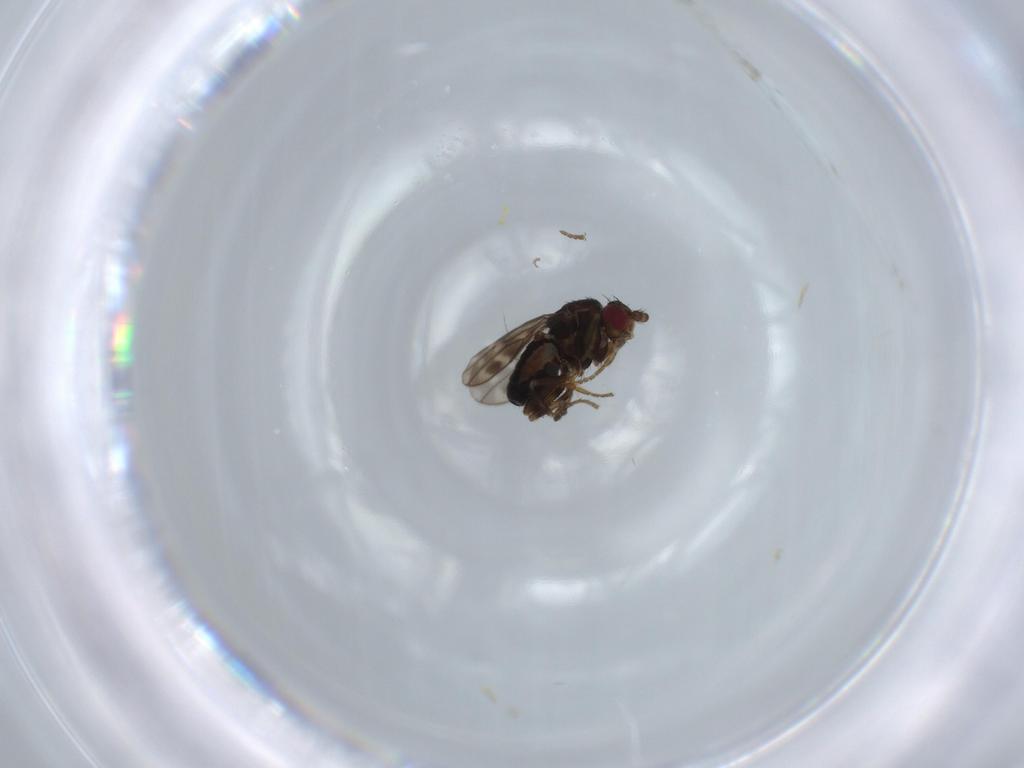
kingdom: Animalia
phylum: Arthropoda
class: Insecta
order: Diptera
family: Sphaeroceridae
